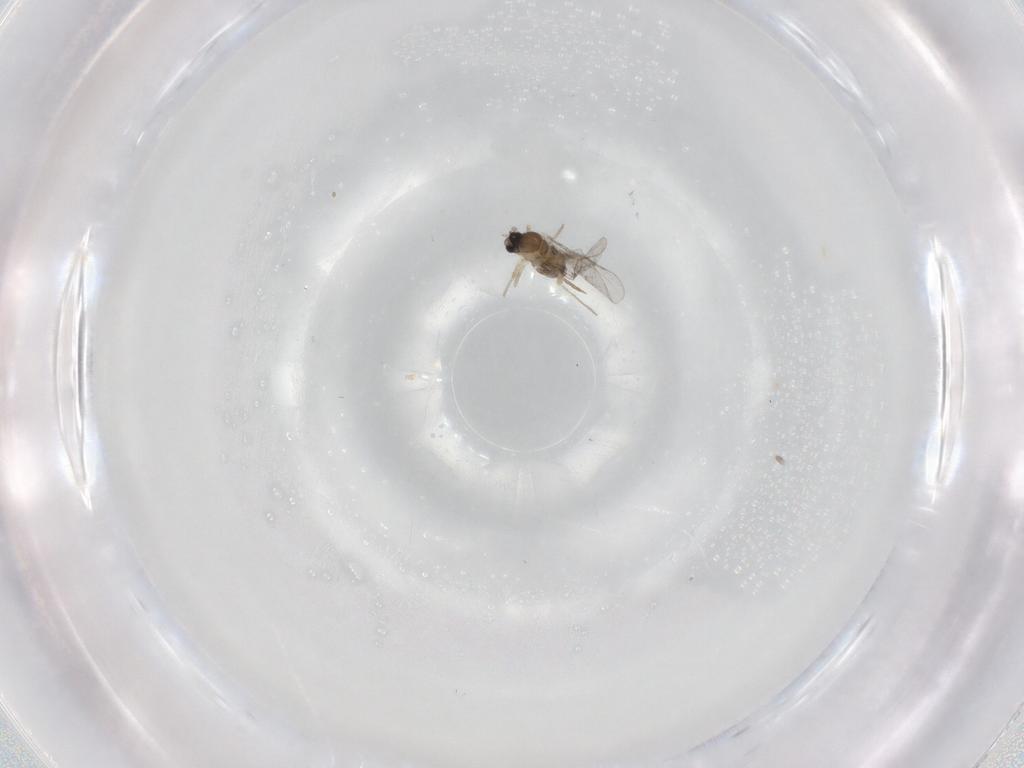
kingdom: Animalia
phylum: Arthropoda
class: Insecta
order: Diptera
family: Cecidomyiidae
